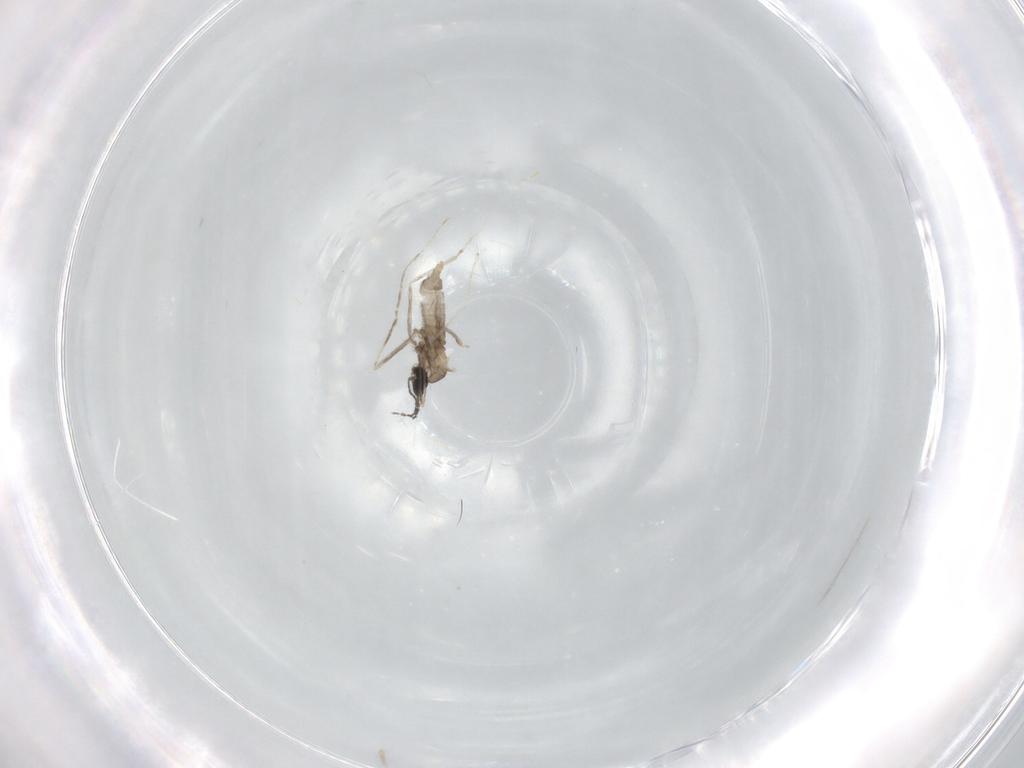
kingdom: Animalia
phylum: Arthropoda
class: Insecta
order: Diptera
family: Cecidomyiidae
